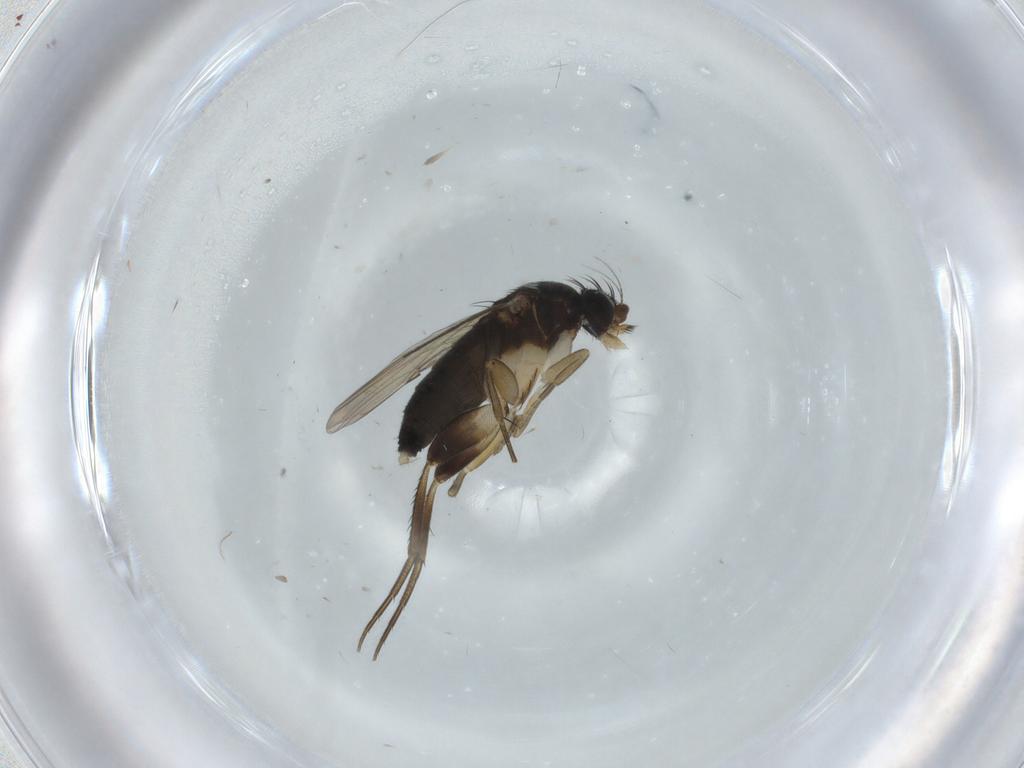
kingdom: Animalia
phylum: Arthropoda
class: Insecta
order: Diptera
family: Phoridae
